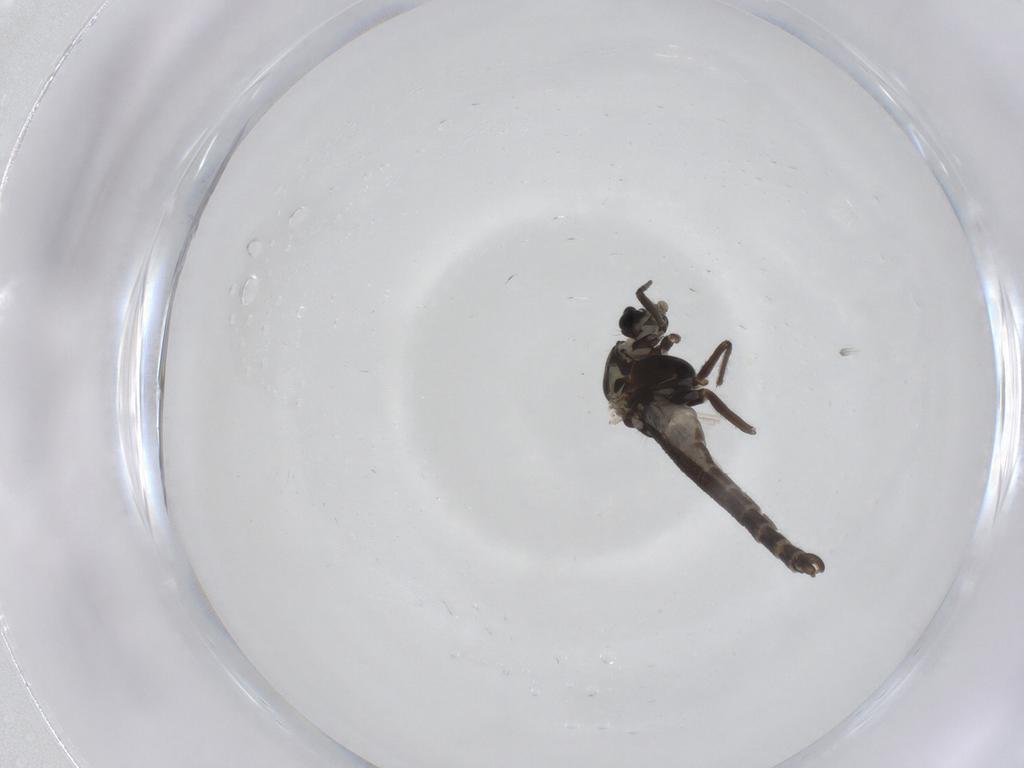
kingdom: Animalia
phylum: Arthropoda
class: Insecta
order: Diptera
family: Chironomidae
